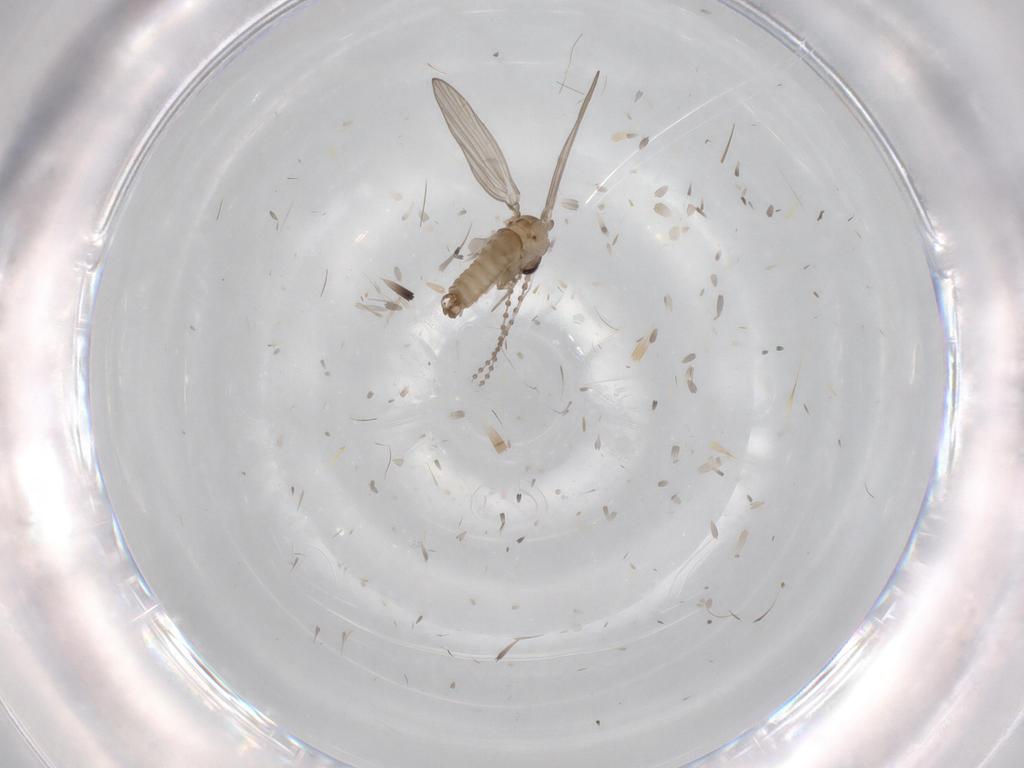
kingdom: Animalia
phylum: Arthropoda
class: Insecta
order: Diptera
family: Psychodidae
